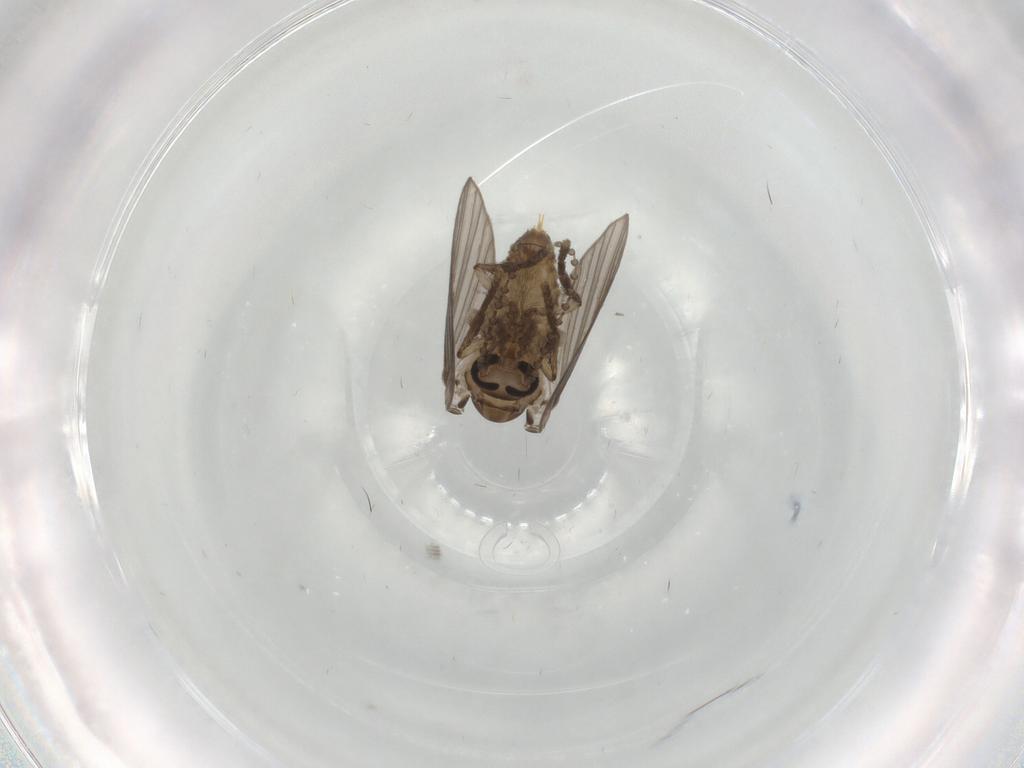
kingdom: Animalia
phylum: Arthropoda
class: Insecta
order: Diptera
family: Psychodidae
